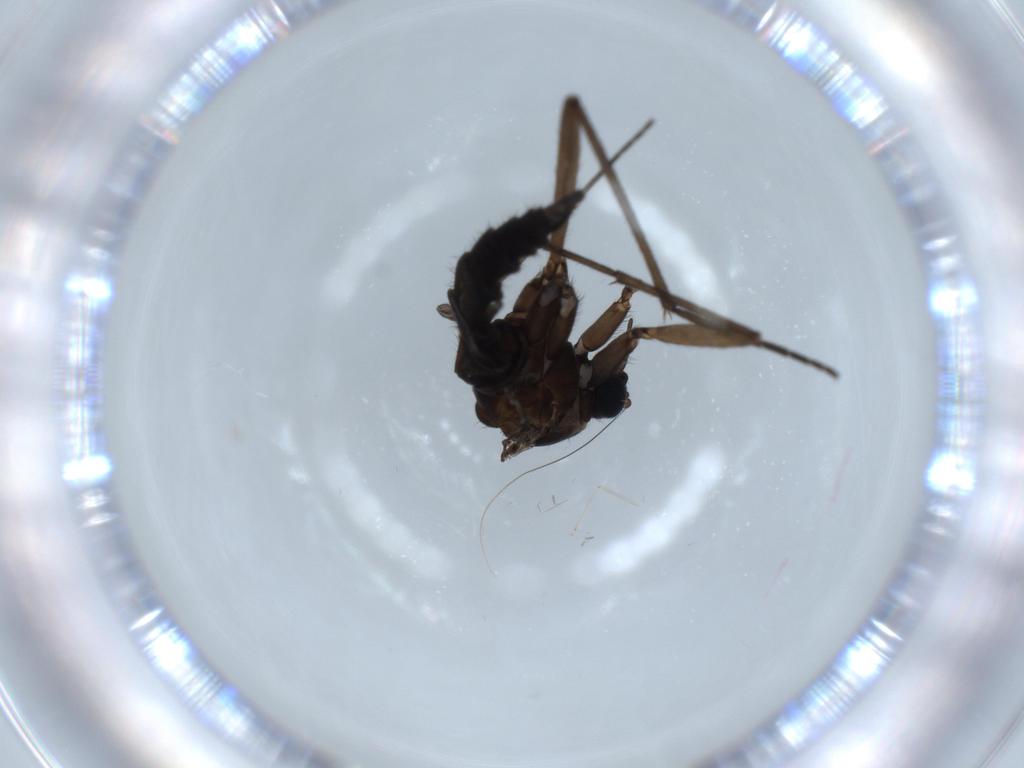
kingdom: Animalia
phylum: Arthropoda
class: Insecta
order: Diptera
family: Sciaridae
